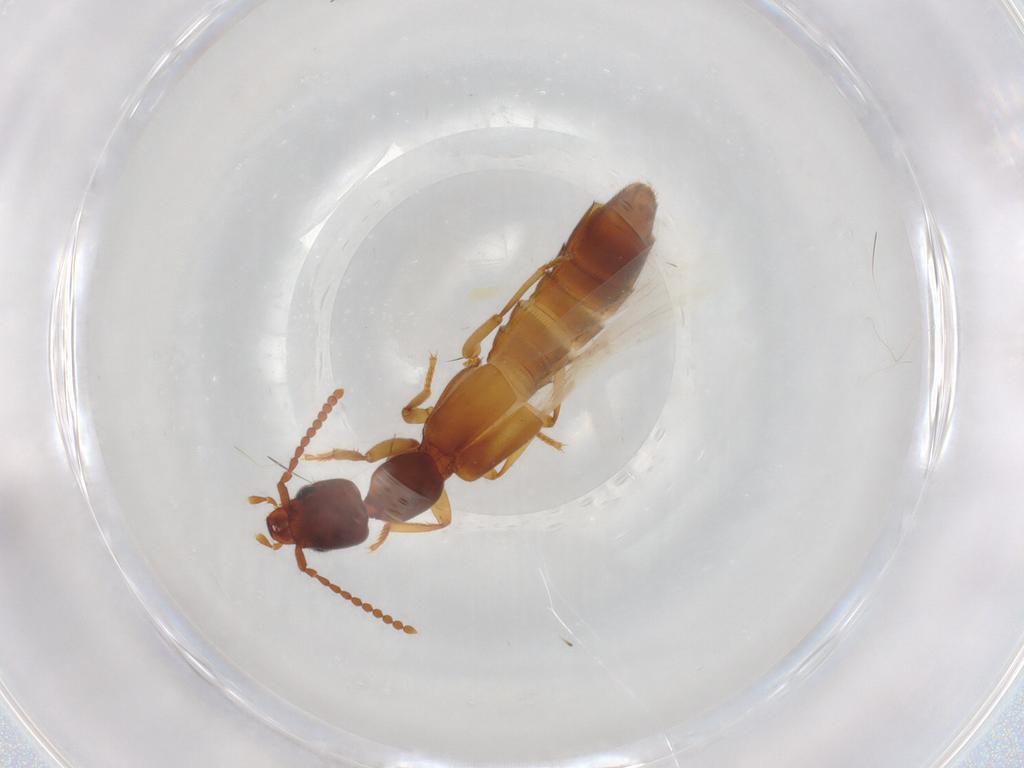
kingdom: Animalia
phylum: Arthropoda
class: Insecta
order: Coleoptera
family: Staphylinidae
